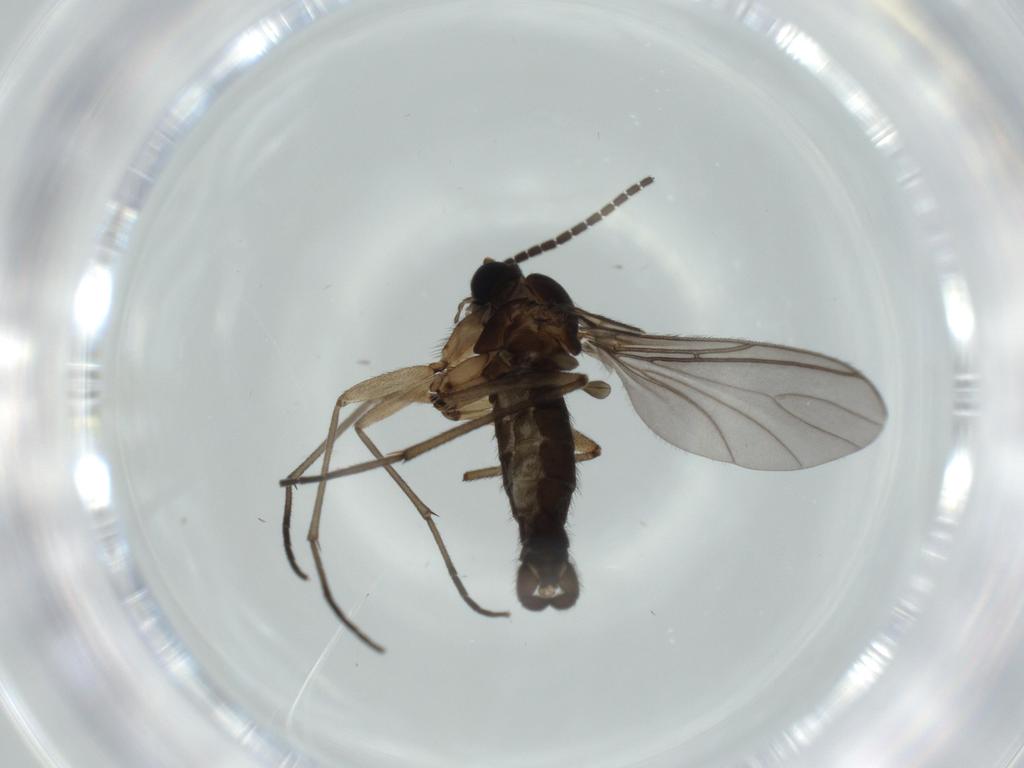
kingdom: Animalia
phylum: Arthropoda
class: Insecta
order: Diptera
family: Sciaridae
